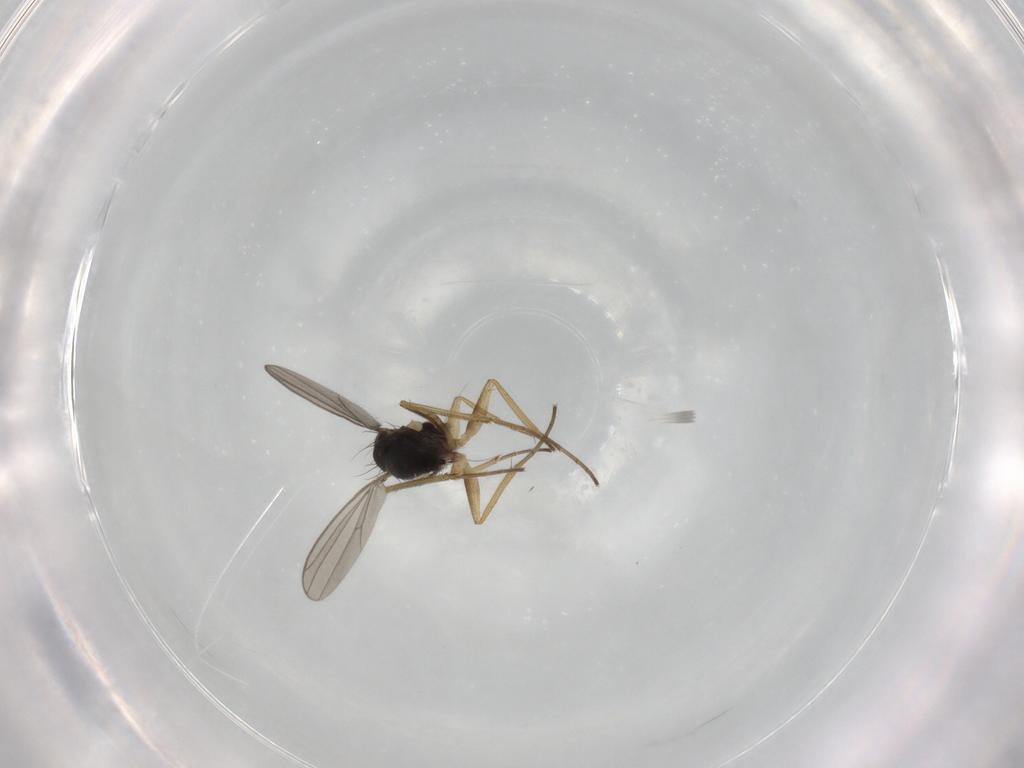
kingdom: Animalia
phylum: Arthropoda
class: Insecta
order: Diptera
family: Dolichopodidae
